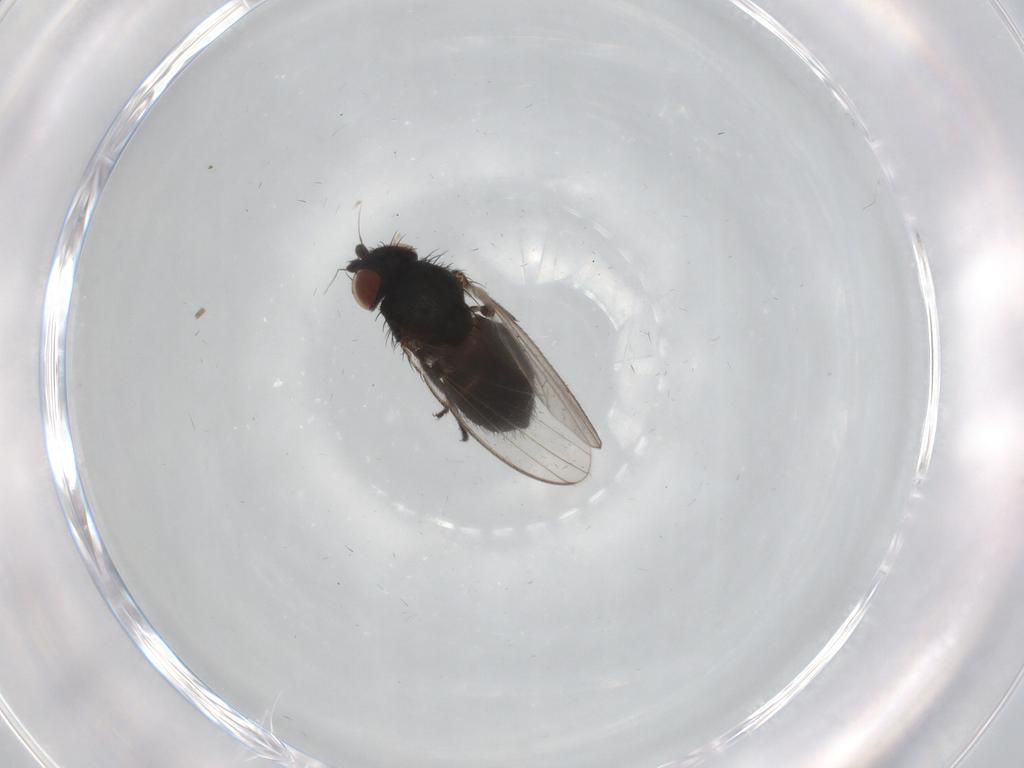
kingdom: Animalia
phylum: Arthropoda
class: Insecta
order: Diptera
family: Milichiidae
